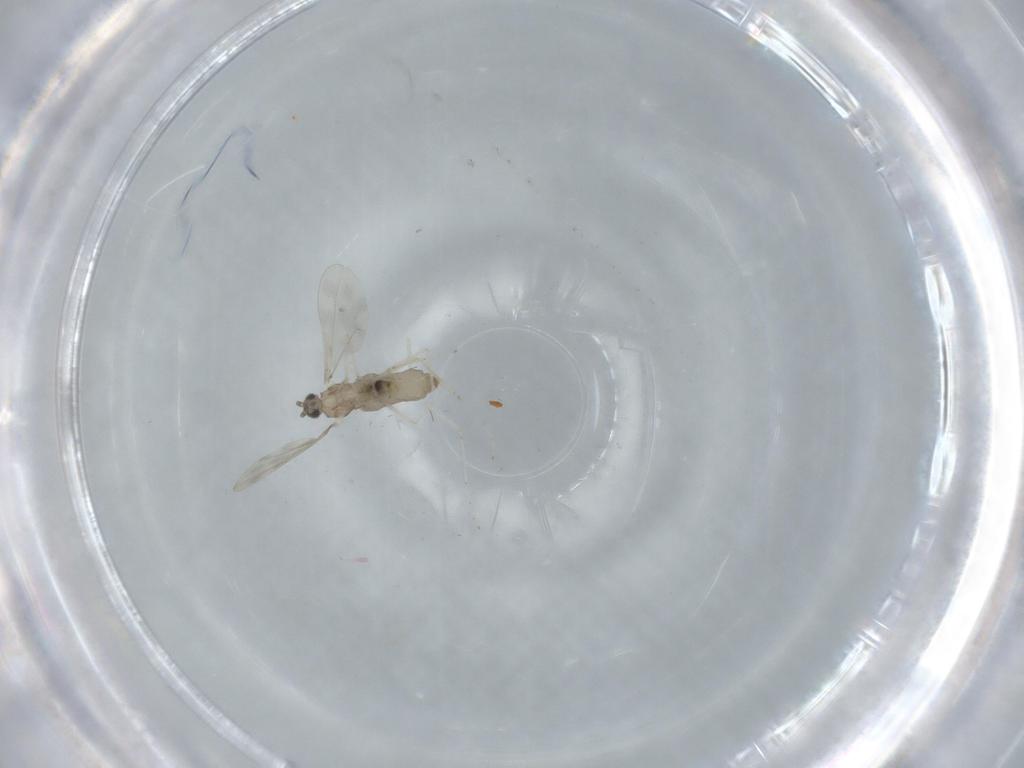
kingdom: Animalia
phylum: Arthropoda
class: Insecta
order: Diptera
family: Cecidomyiidae
